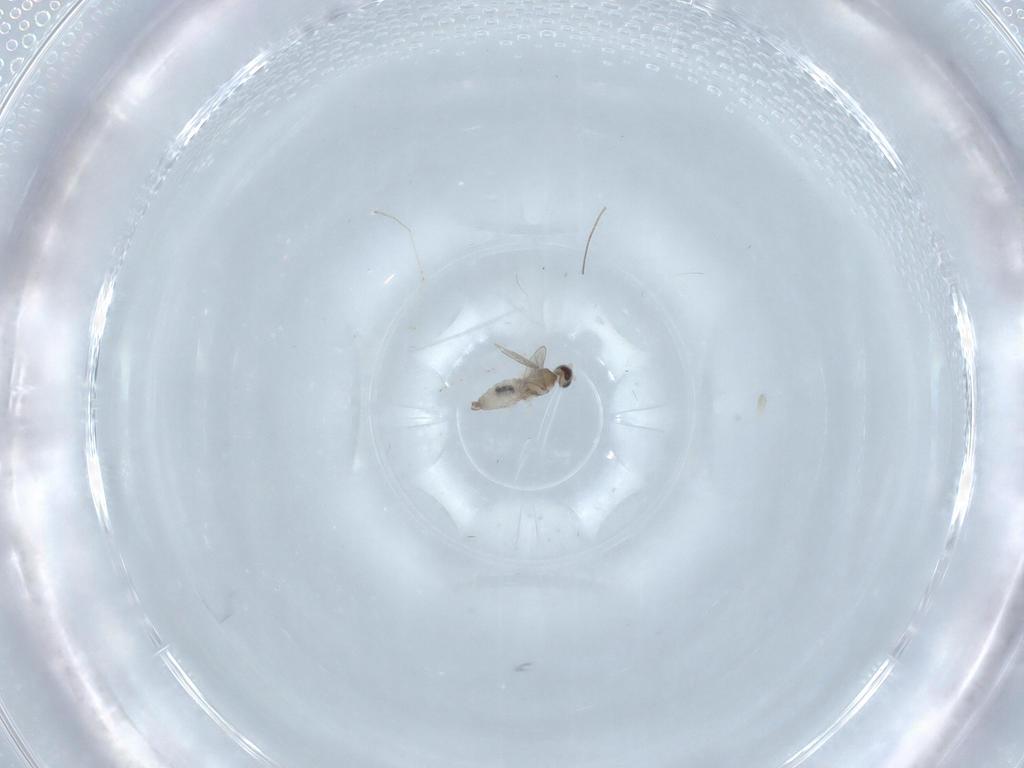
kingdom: Animalia
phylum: Arthropoda
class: Insecta
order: Diptera
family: Cecidomyiidae
